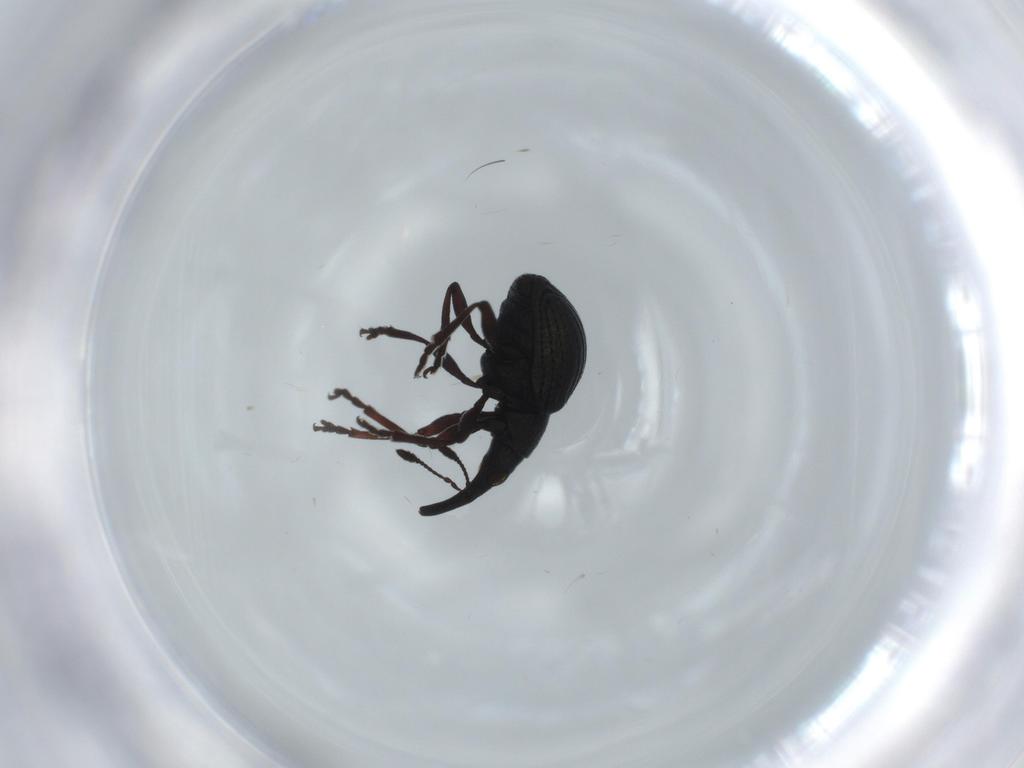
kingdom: Animalia
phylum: Arthropoda
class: Insecta
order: Coleoptera
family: Brentidae
